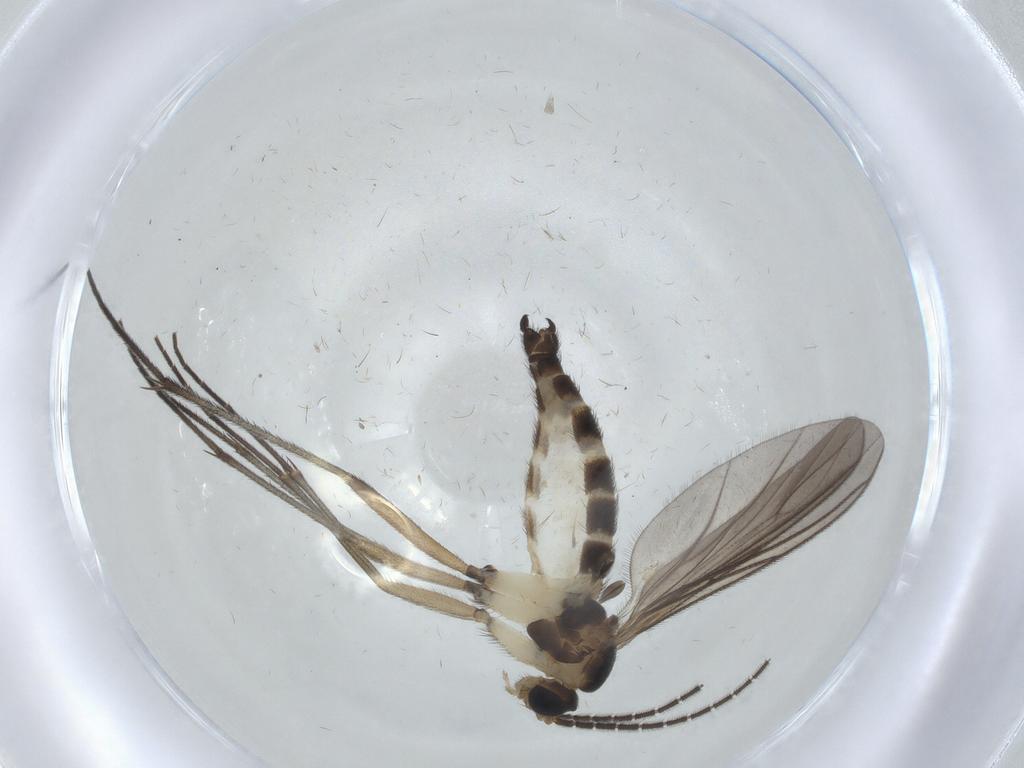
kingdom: Animalia
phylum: Arthropoda
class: Insecta
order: Diptera
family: Sciaridae
